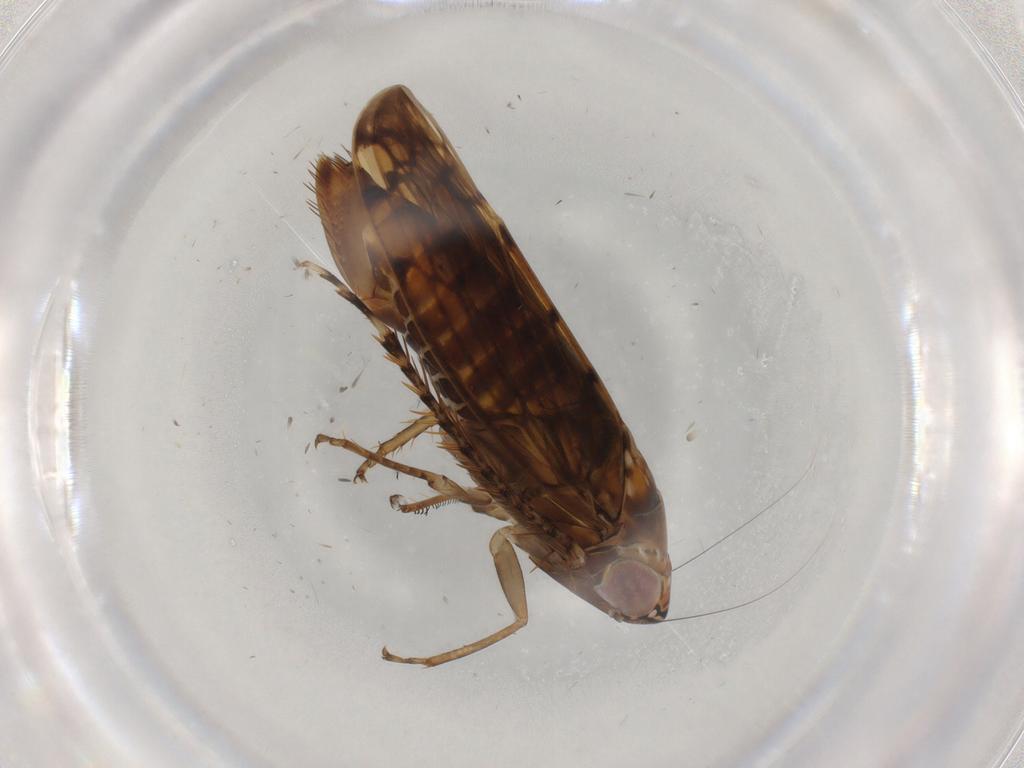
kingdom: Animalia
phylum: Arthropoda
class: Insecta
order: Hemiptera
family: Cicadellidae
